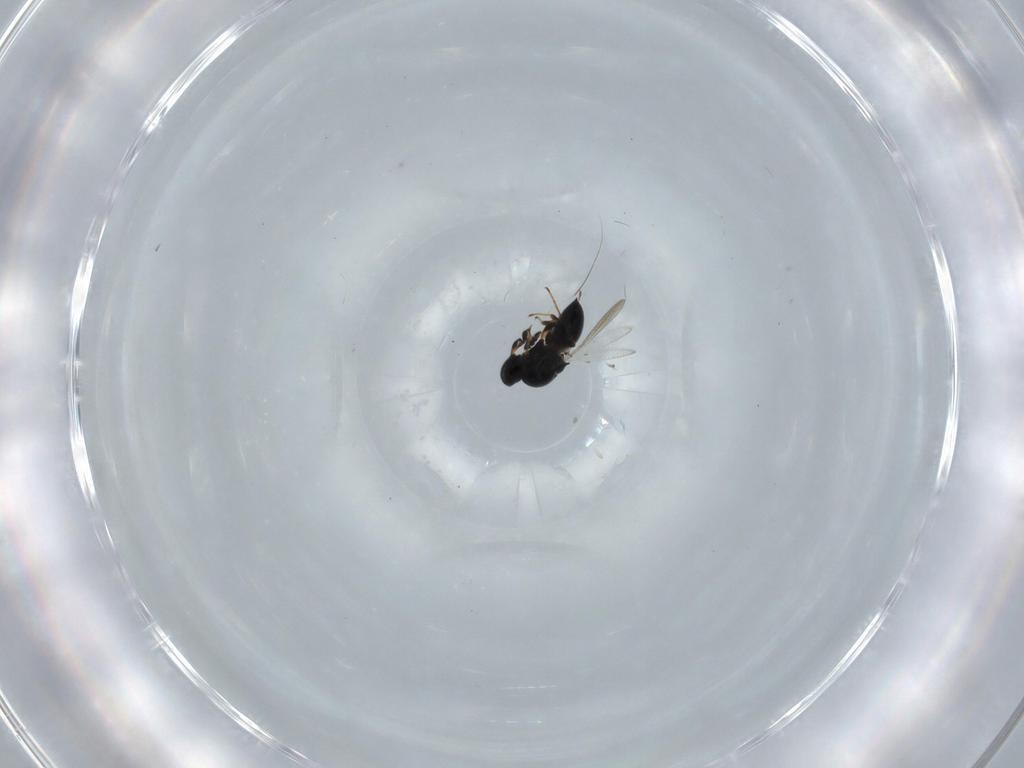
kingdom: Animalia
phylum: Arthropoda
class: Insecta
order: Hymenoptera
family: Platygastridae
